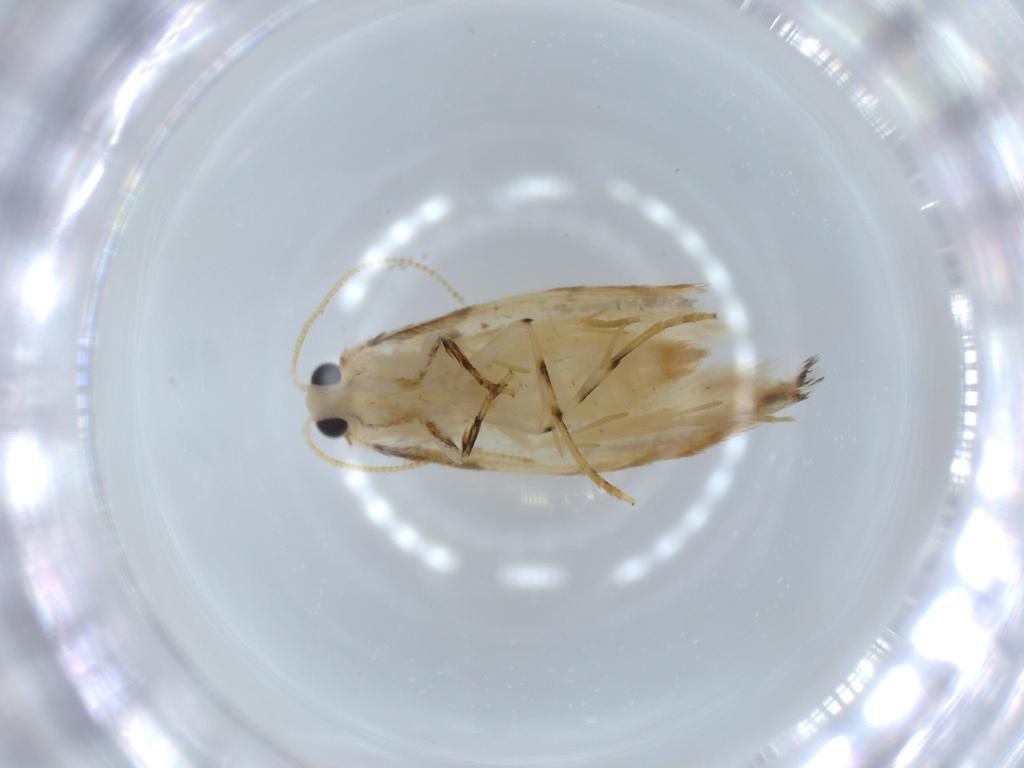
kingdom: Animalia
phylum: Arthropoda
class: Insecta
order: Lepidoptera
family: Tineidae
